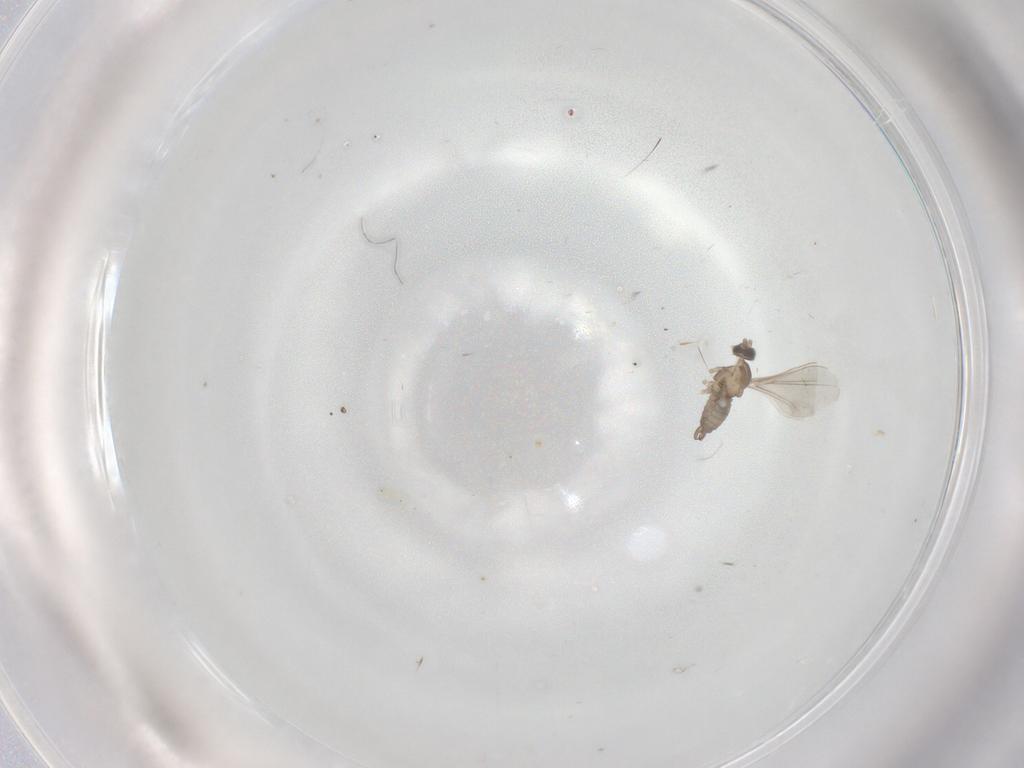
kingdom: Animalia
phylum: Arthropoda
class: Insecta
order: Diptera
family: Cecidomyiidae
